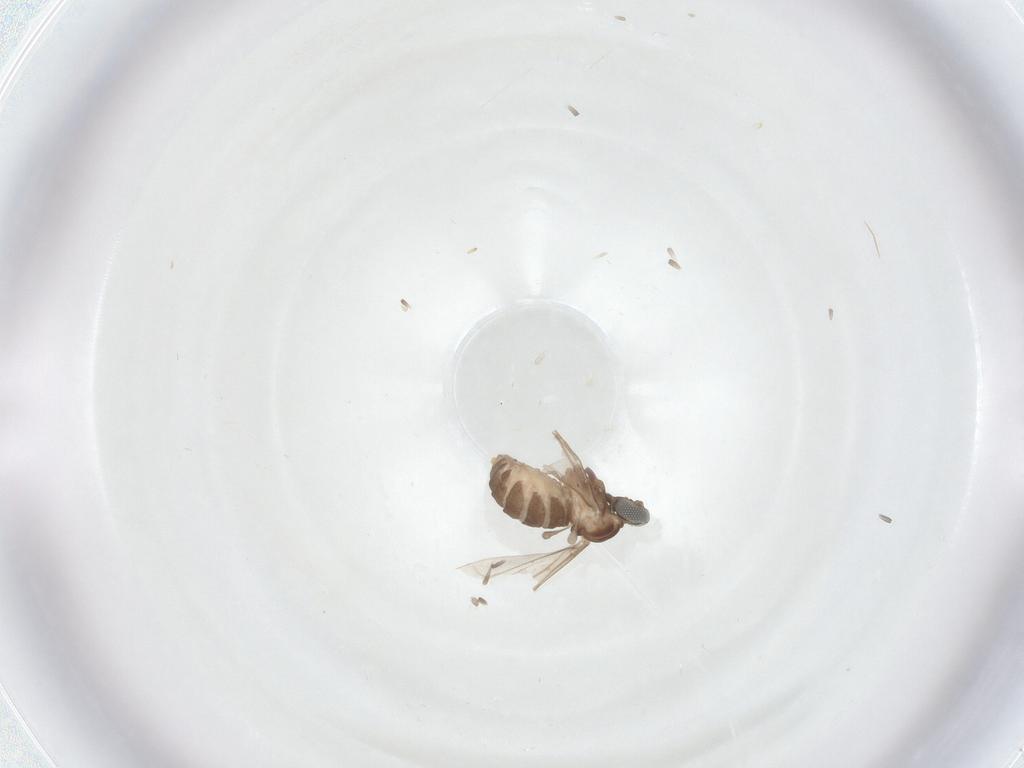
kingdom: Animalia
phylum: Arthropoda
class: Insecta
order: Diptera
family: Cecidomyiidae
